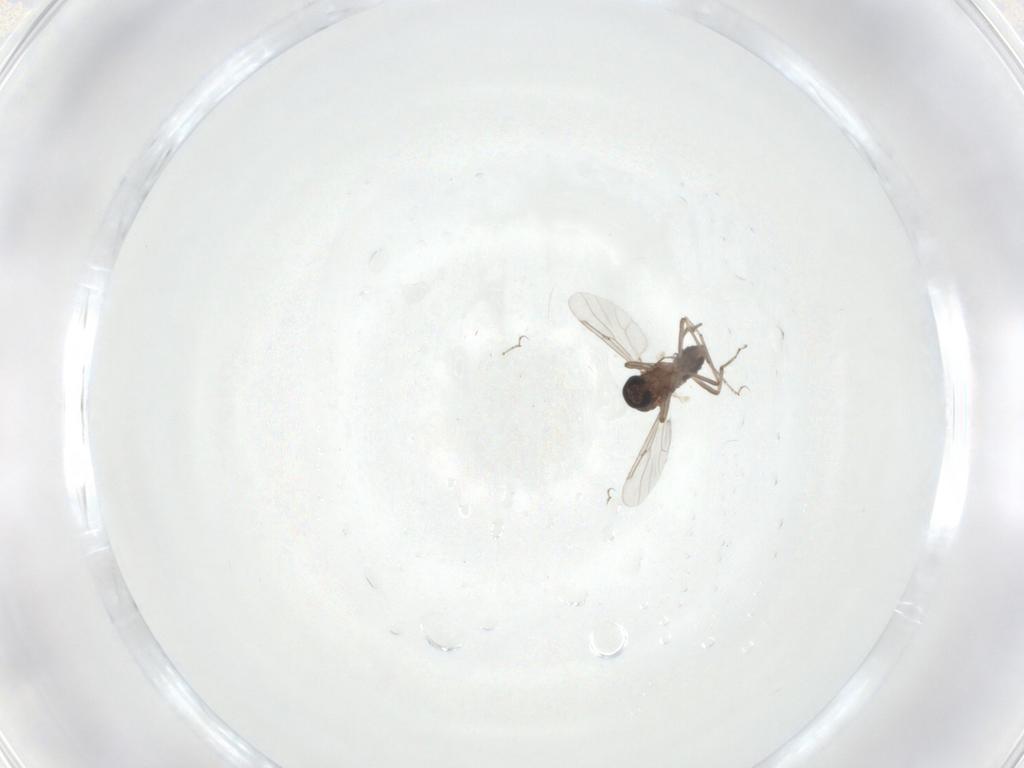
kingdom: Animalia
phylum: Arthropoda
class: Insecta
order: Diptera
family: Ceratopogonidae
